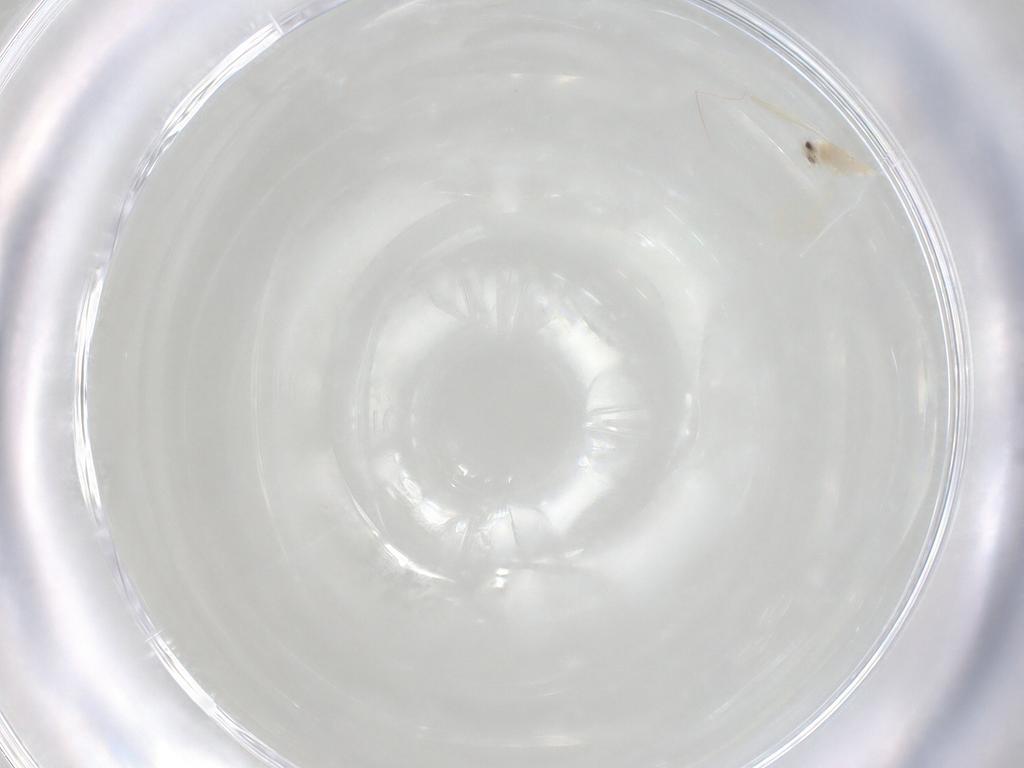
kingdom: Animalia
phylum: Arthropoda
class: Insecta
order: Hemiptera
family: Aleyrodidae
